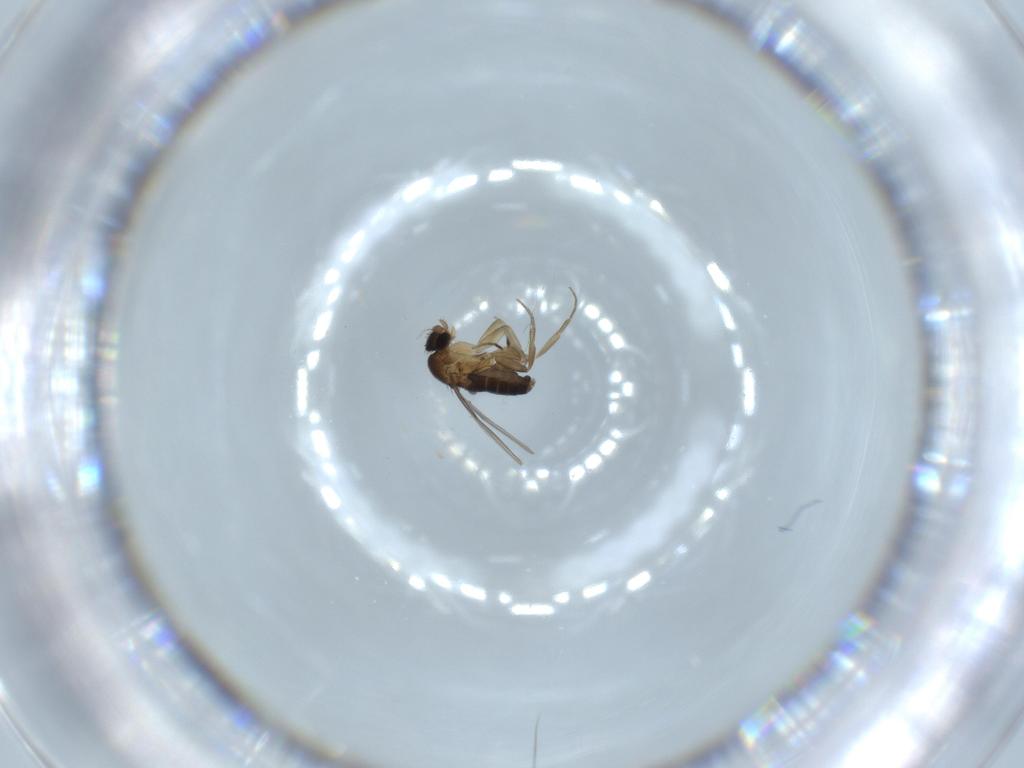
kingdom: Animalia
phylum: Arthropoda
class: Insecta
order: Diptera
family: Phoridae
